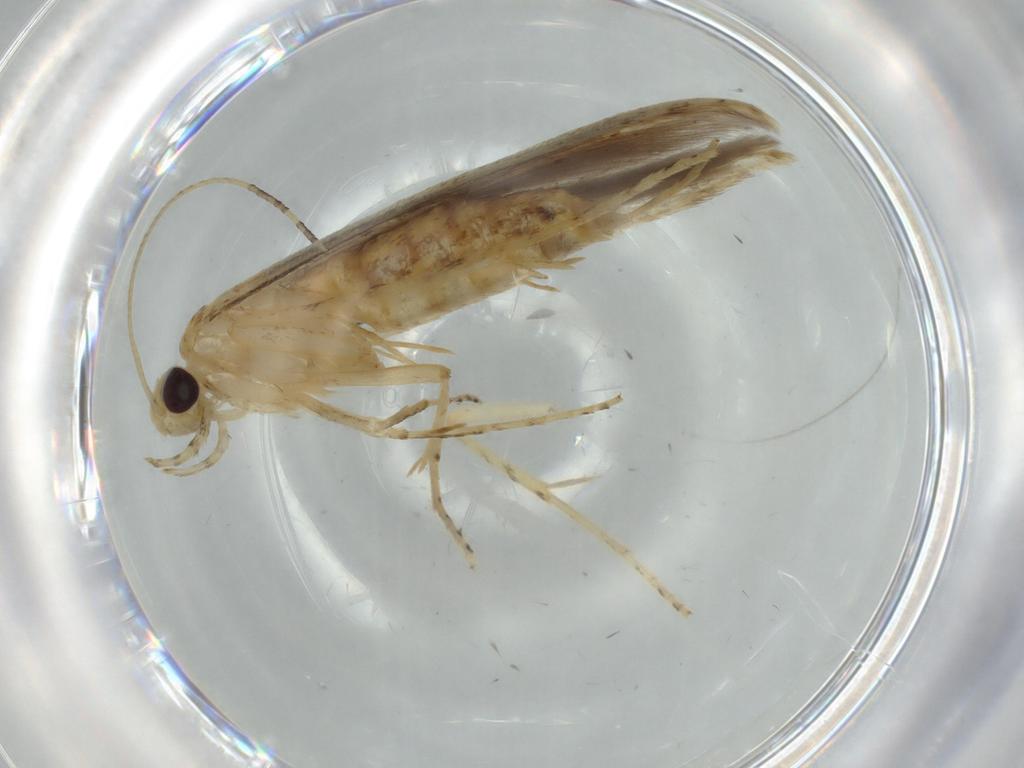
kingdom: Animalia
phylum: Arthropoda
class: Insecta
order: Lepidoptera
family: Batrachedridae
